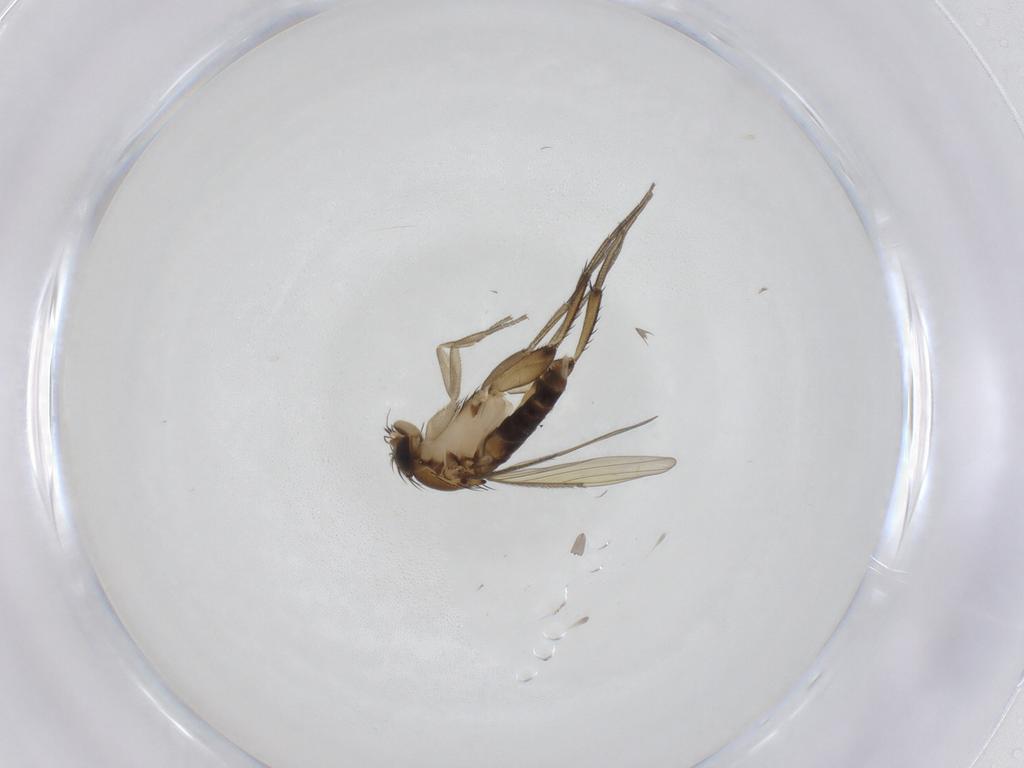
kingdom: Animalia
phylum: Arthropoda
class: Insecta
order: Diptera
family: Phoridae
